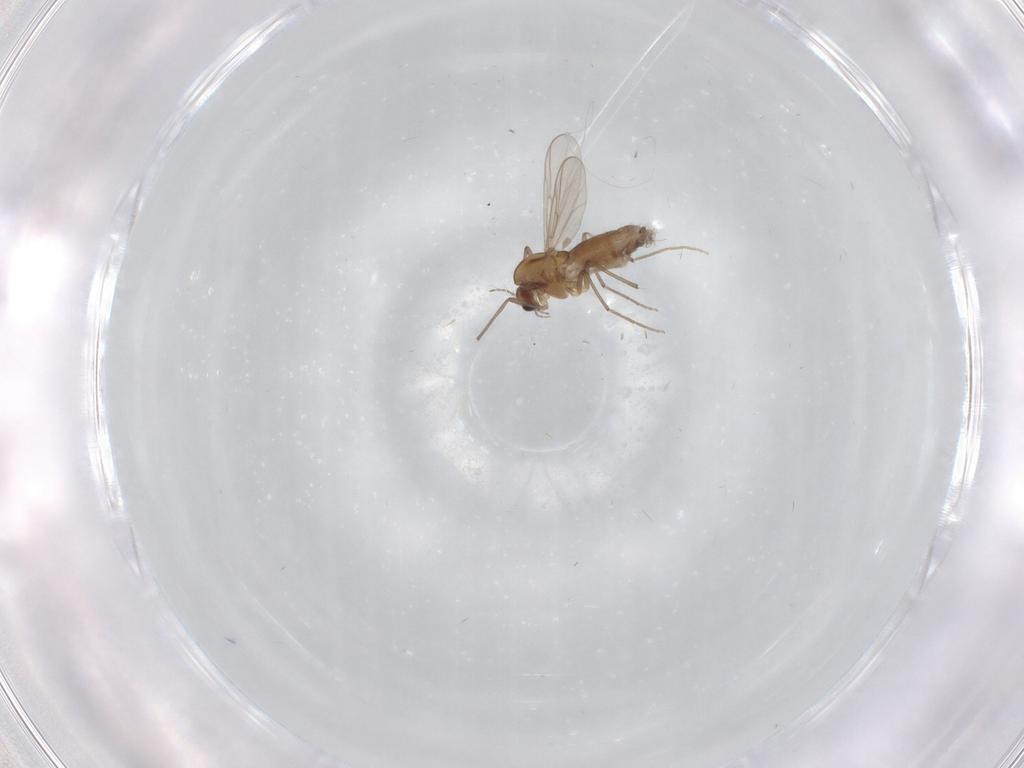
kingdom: Animalia
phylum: Arthropoda
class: Insecta
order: Diptera
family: Chironomidae
